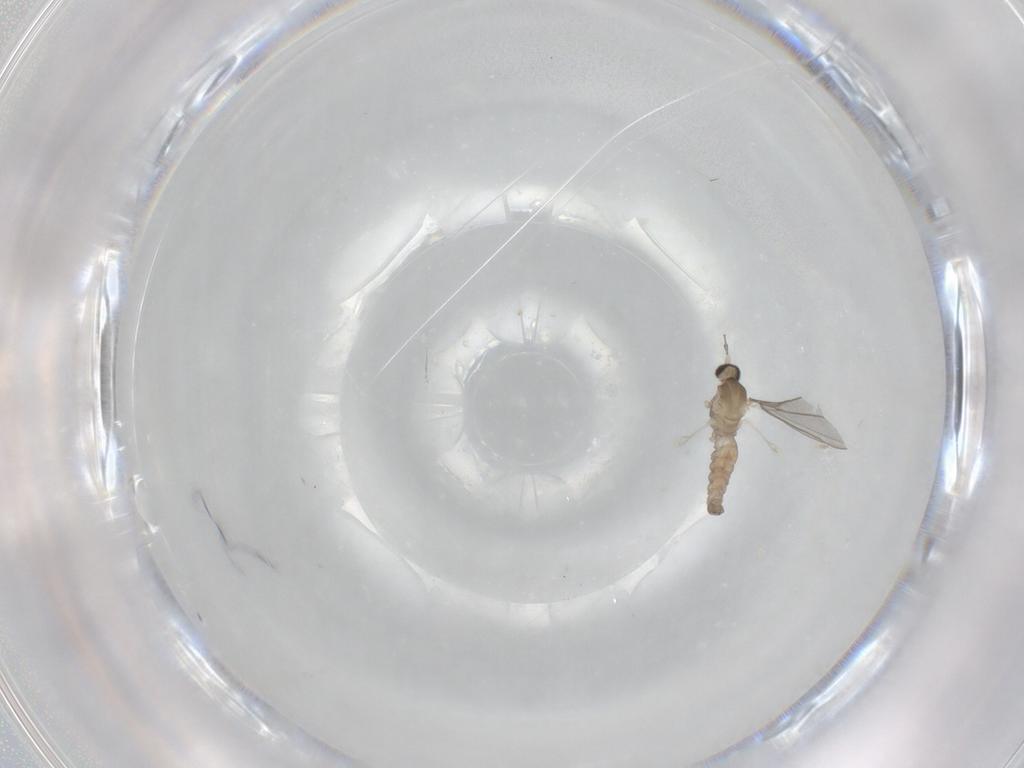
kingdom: Animalia
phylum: Arthropoda
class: Insecta
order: Diptera
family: Cecidomyiidae
